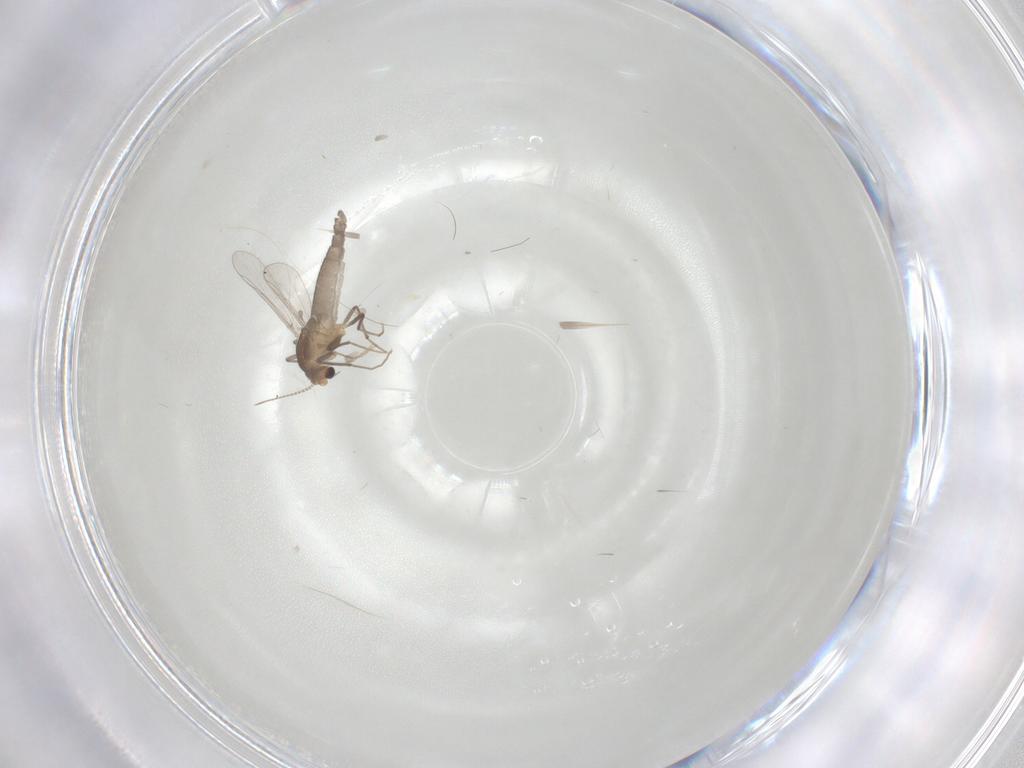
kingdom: Animalia
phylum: Arthropoda
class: Insecta
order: Diptera
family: Chironomidae
